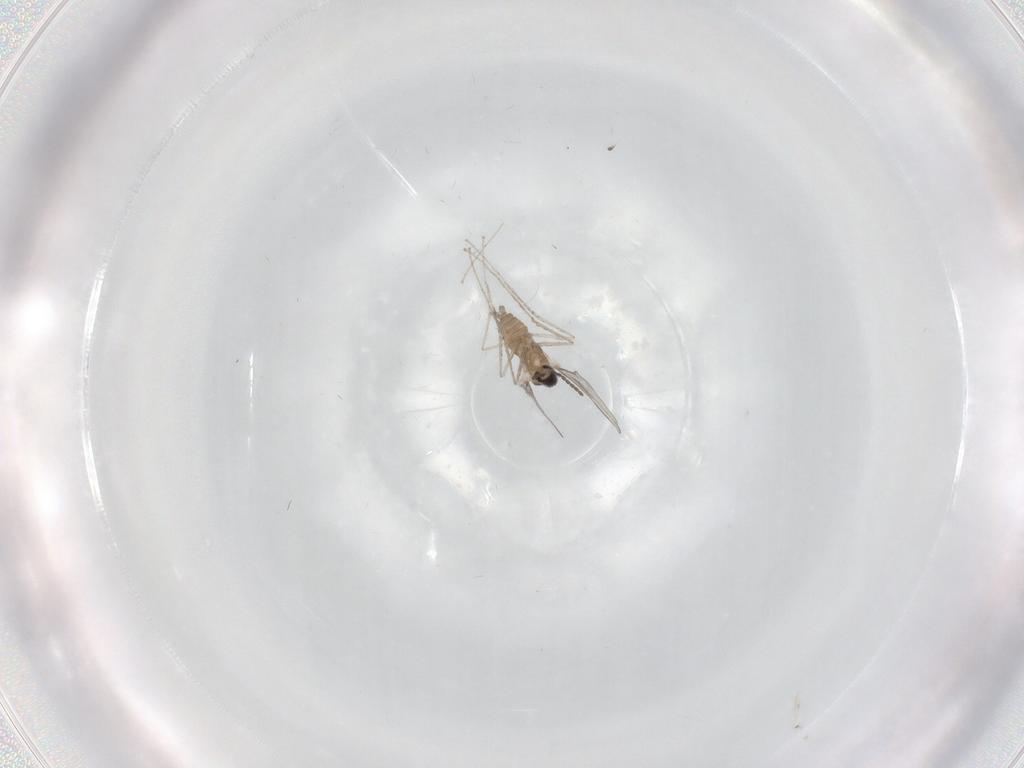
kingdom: Animalia
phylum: Arthropoda
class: Insecta
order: Diptera
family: Cecidomyiidae
